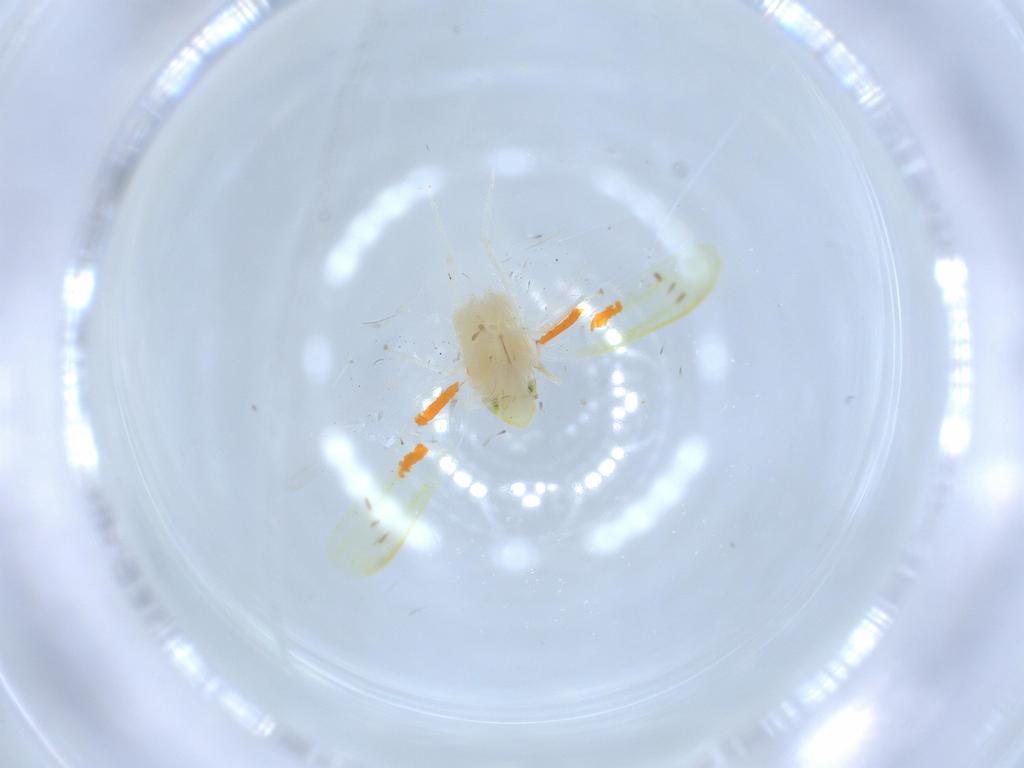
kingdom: Animalia
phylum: Arthropoda
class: Insecta
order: Hemiptera
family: Cicadellidae
